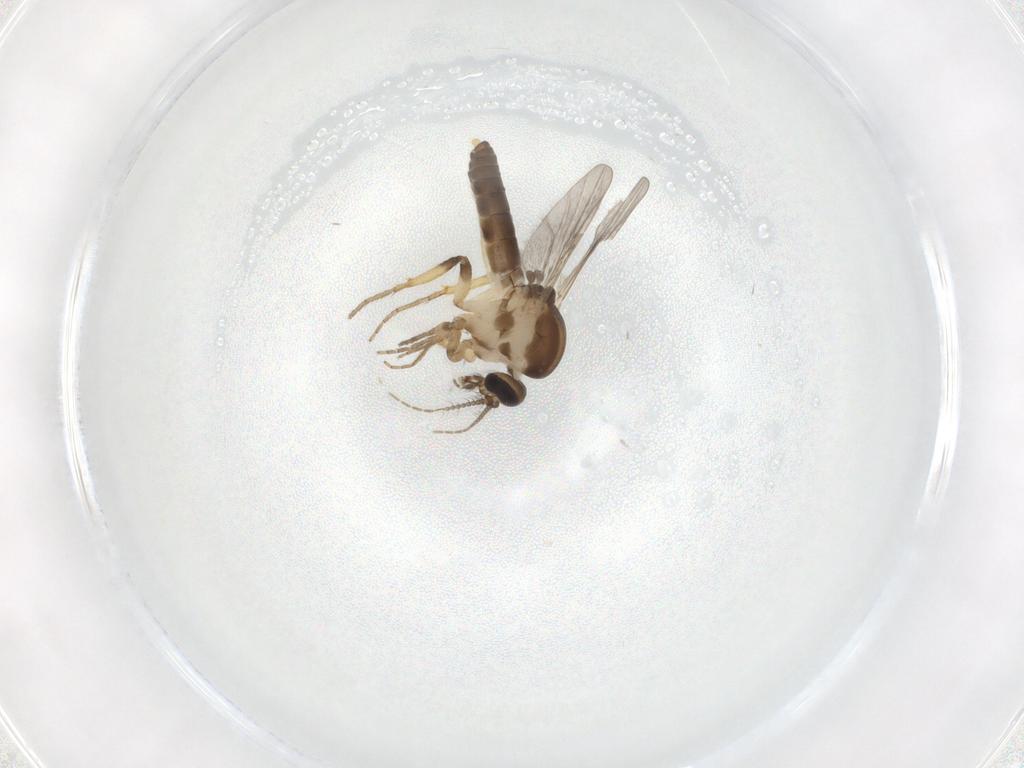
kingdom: Animalia
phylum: Arthropoda
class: Insecta
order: Diptera
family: Ceratopogonidae
